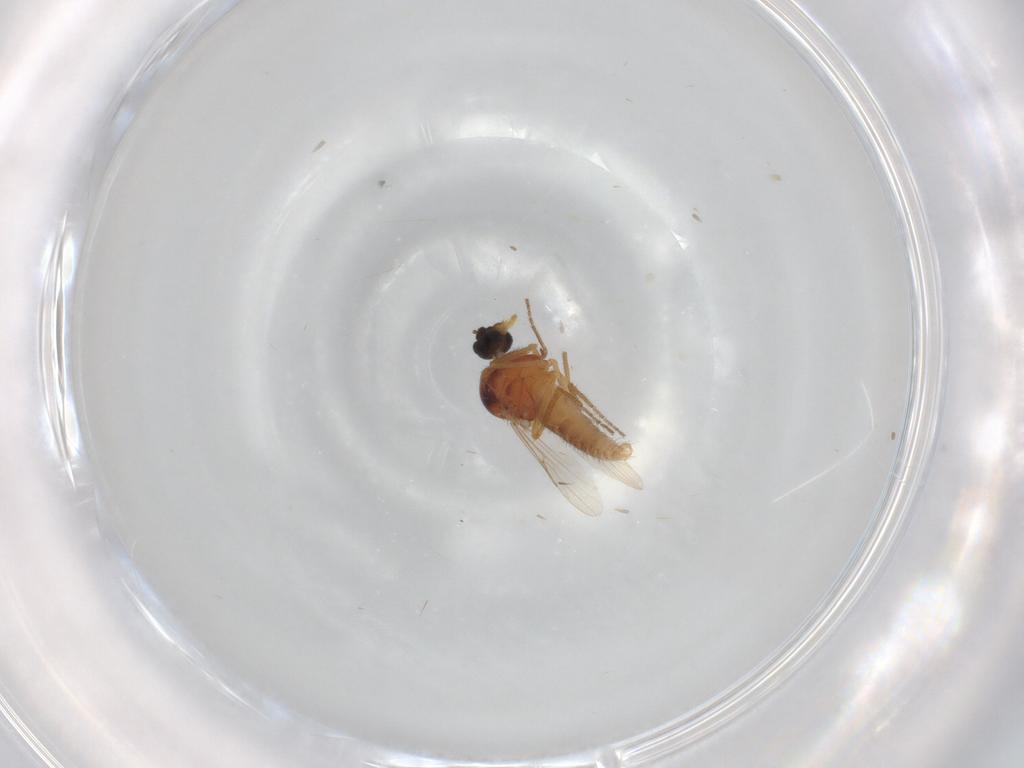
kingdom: Animalia
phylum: Arthropoda
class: Insecta
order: Diptera
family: Cecidomyiidae
